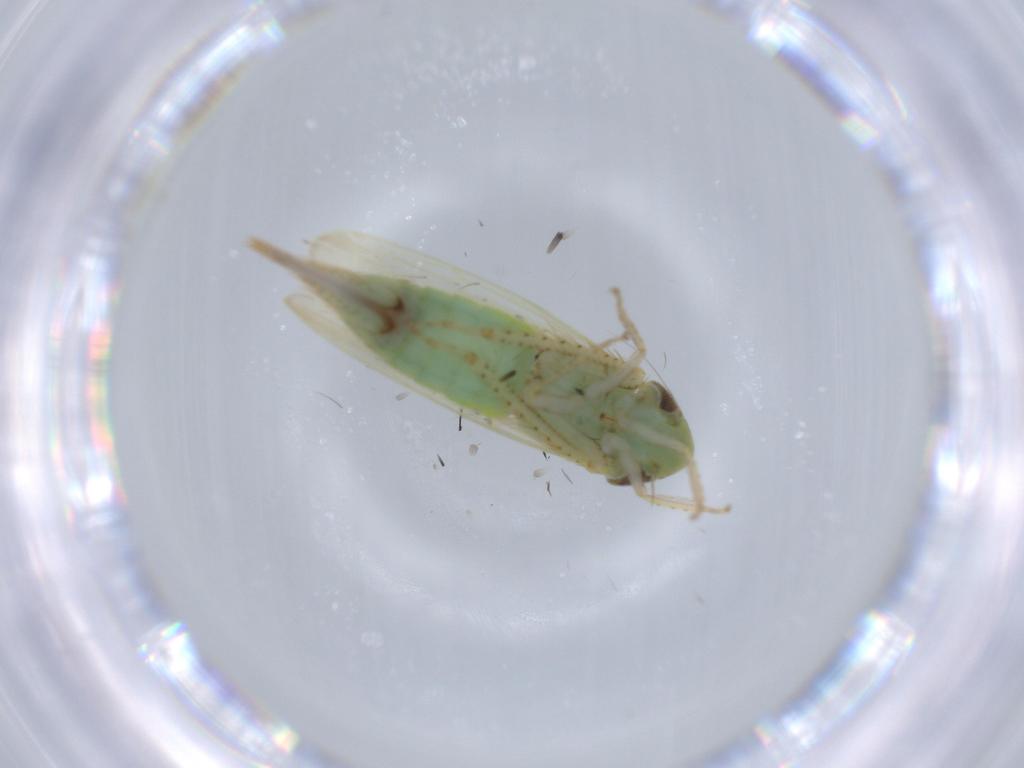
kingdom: Animalia
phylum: Arthropoda
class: Insecta
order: Hemiptera
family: Cicadellidae
